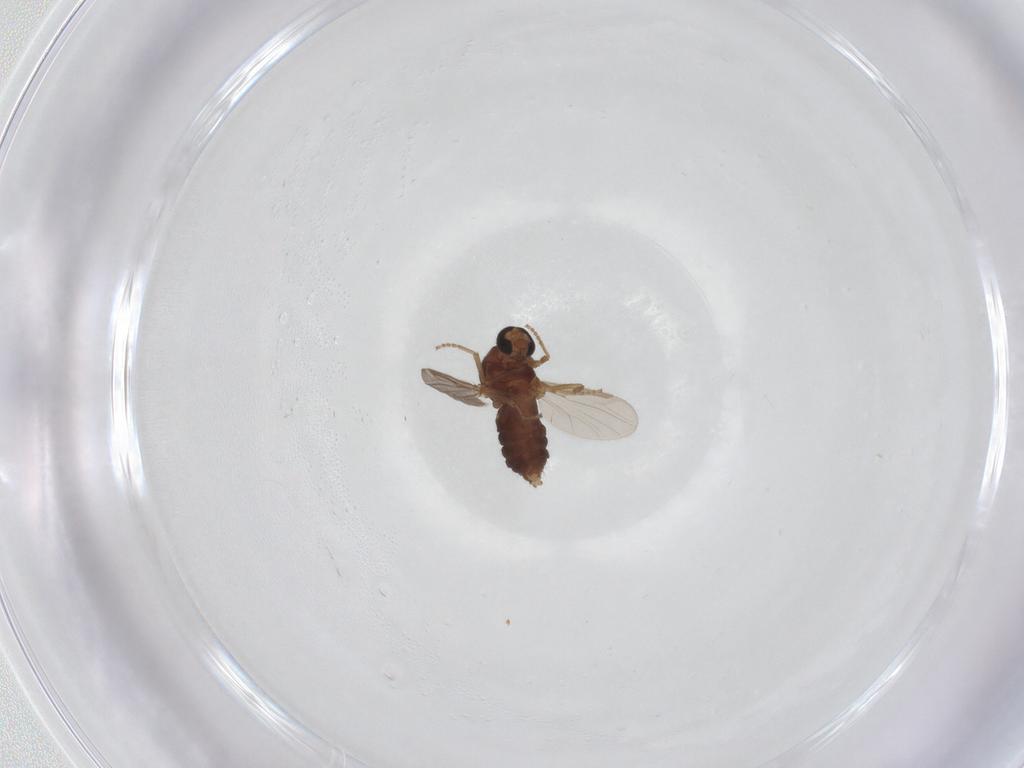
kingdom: Animalia
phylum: Arthropoda
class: Insecta
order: Diptera
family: Ceratopogonidae
